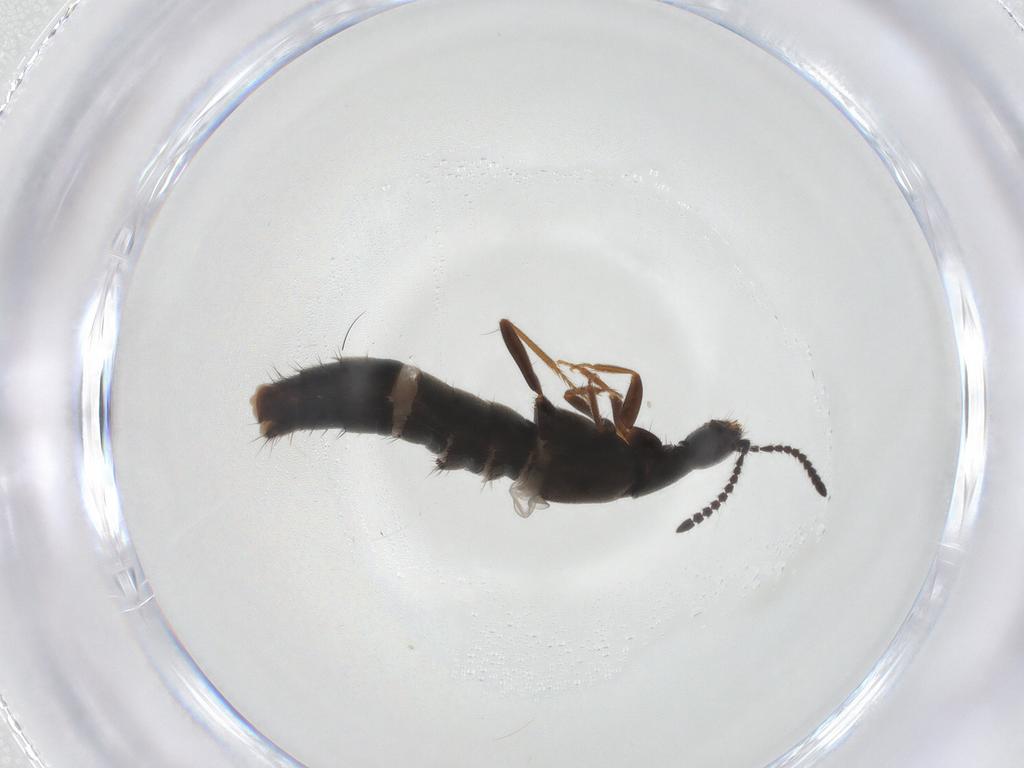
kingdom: Animalia
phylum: Arthropoda
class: Insecta
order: Coleoptera
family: Staphylinidae
